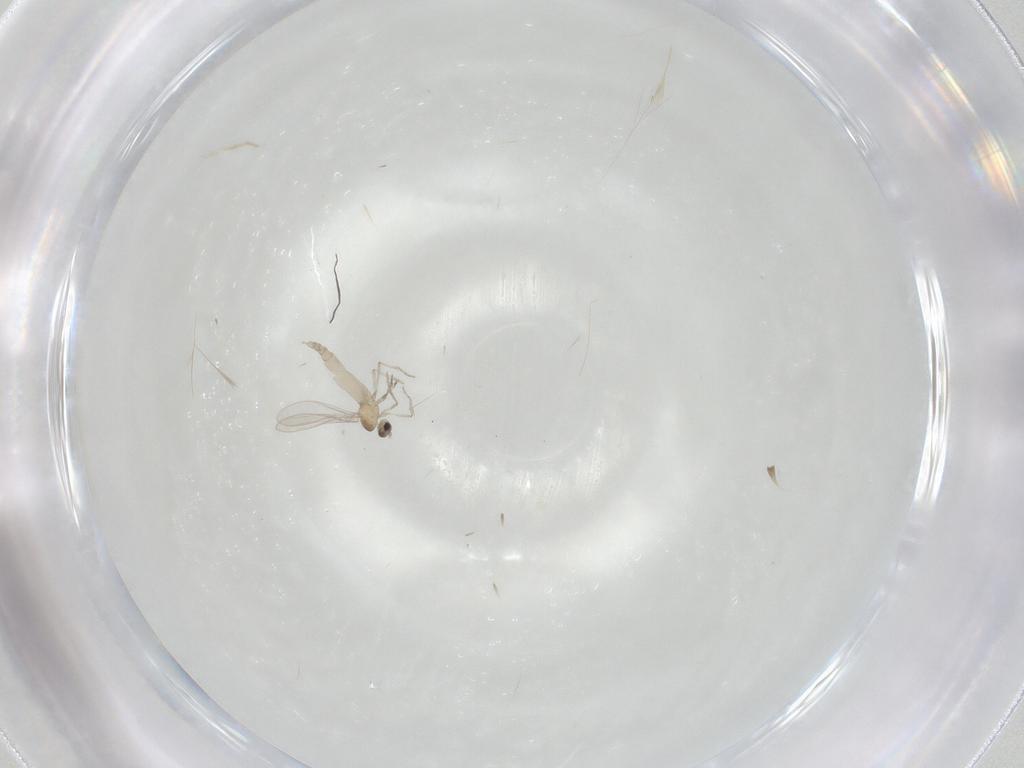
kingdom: Animalia
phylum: Arthropoda
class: Insecta
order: Diptera
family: Cecidomyiidae
